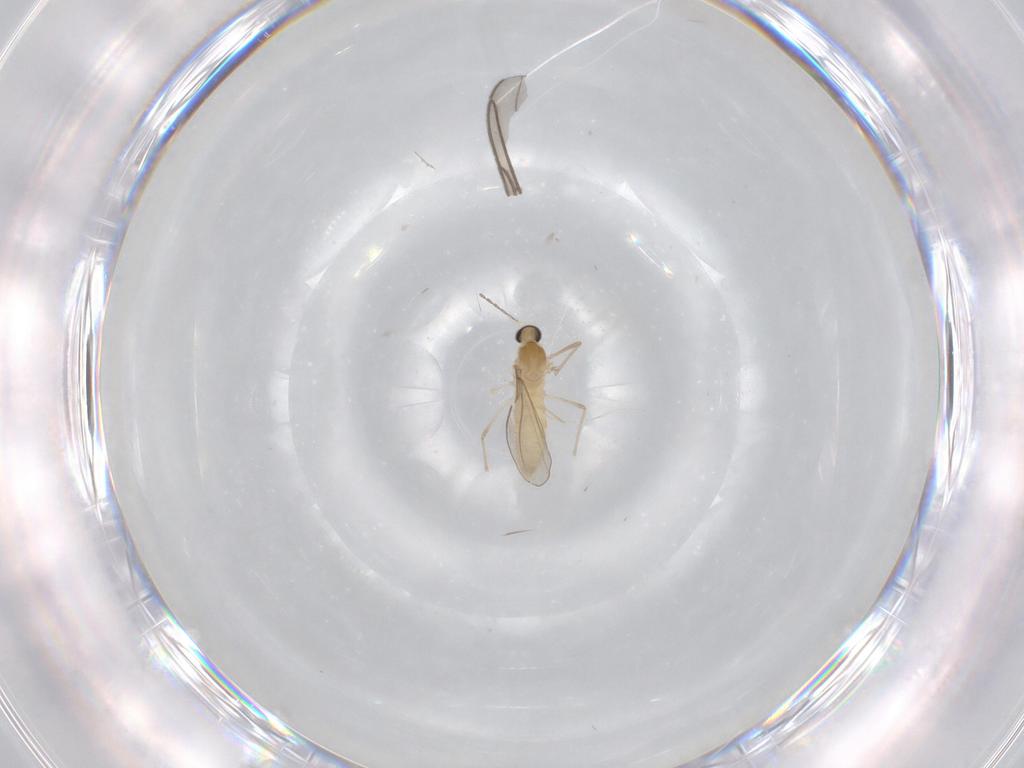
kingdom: Animalia
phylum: Arthropoda
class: Insecta
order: Diptera
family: Cecidomyiidae
